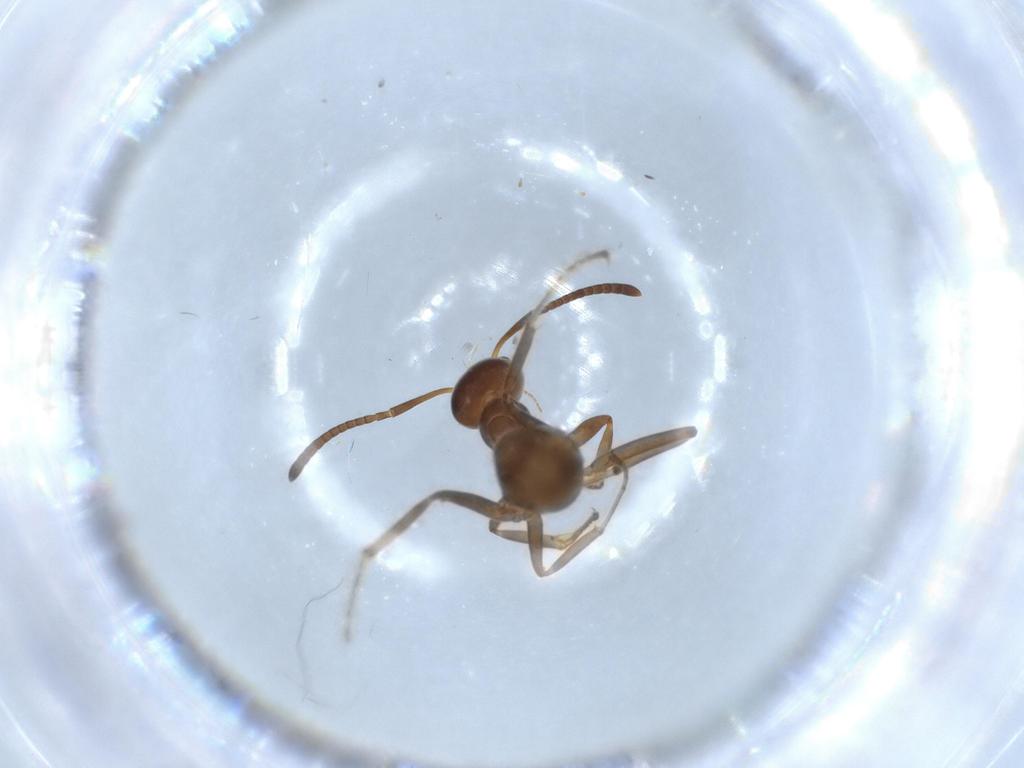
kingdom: Animalia
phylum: Arthropoda
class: Insecta
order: Hymenoptera
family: Formicidae
